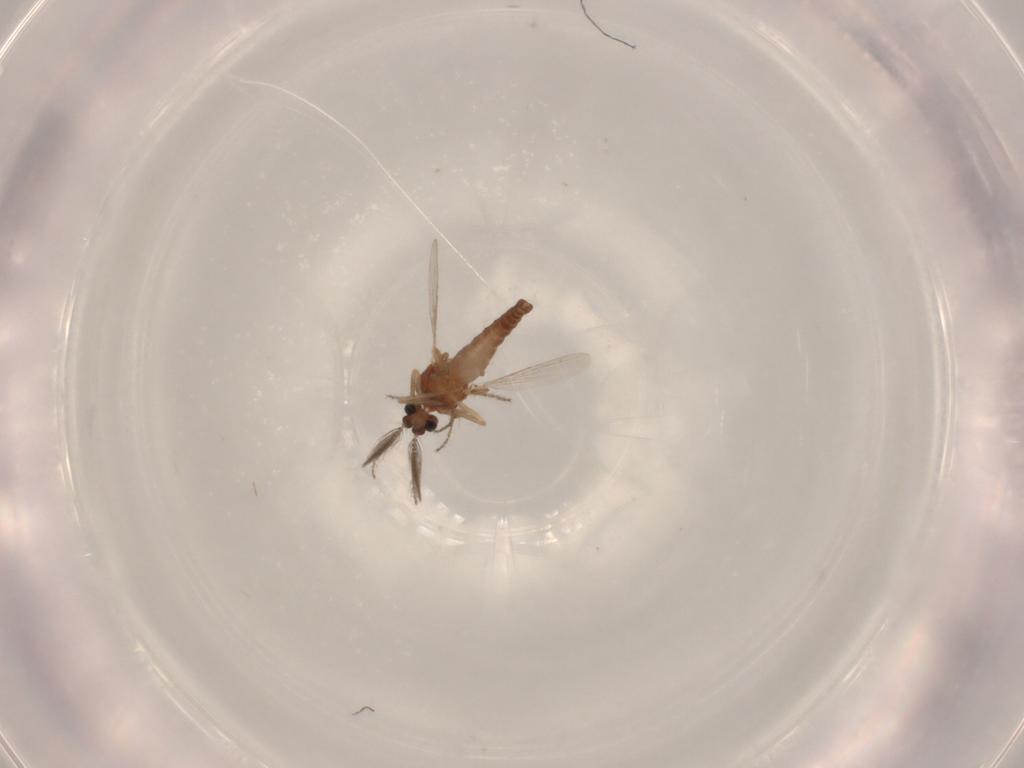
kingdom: Animalia
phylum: Arthropoda
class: Insecta
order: Diptera
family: Ceratopogonidae
